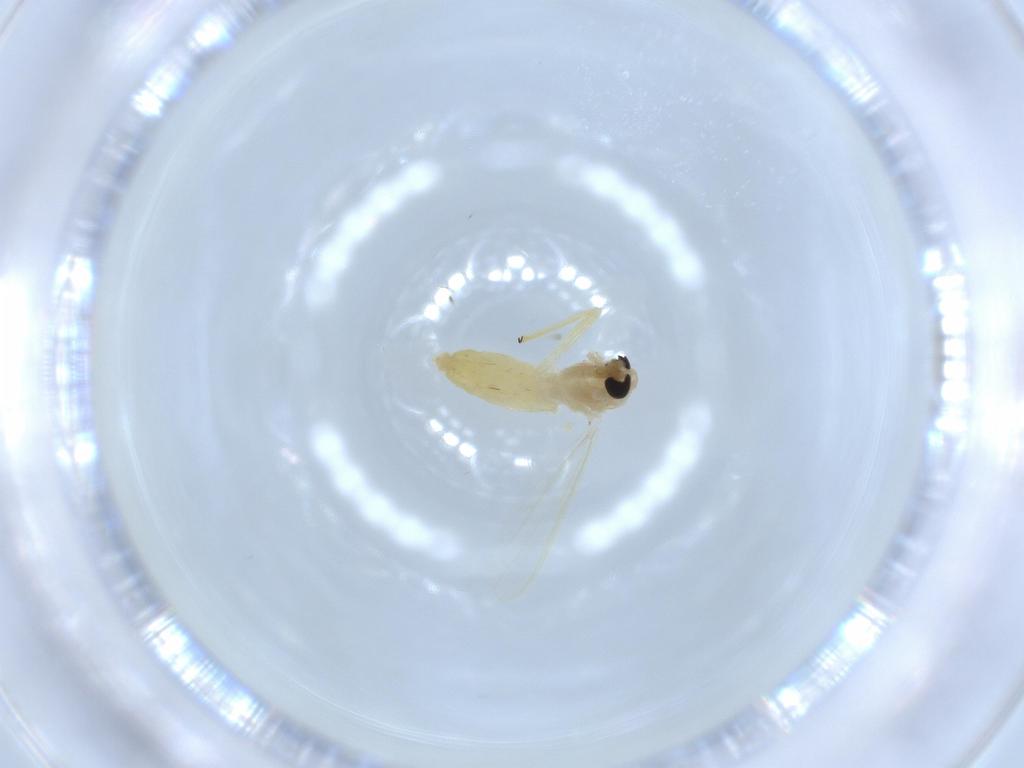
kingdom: Animalia
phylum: Arthropoda
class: Insecta
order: Diptera
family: Chironomidae
